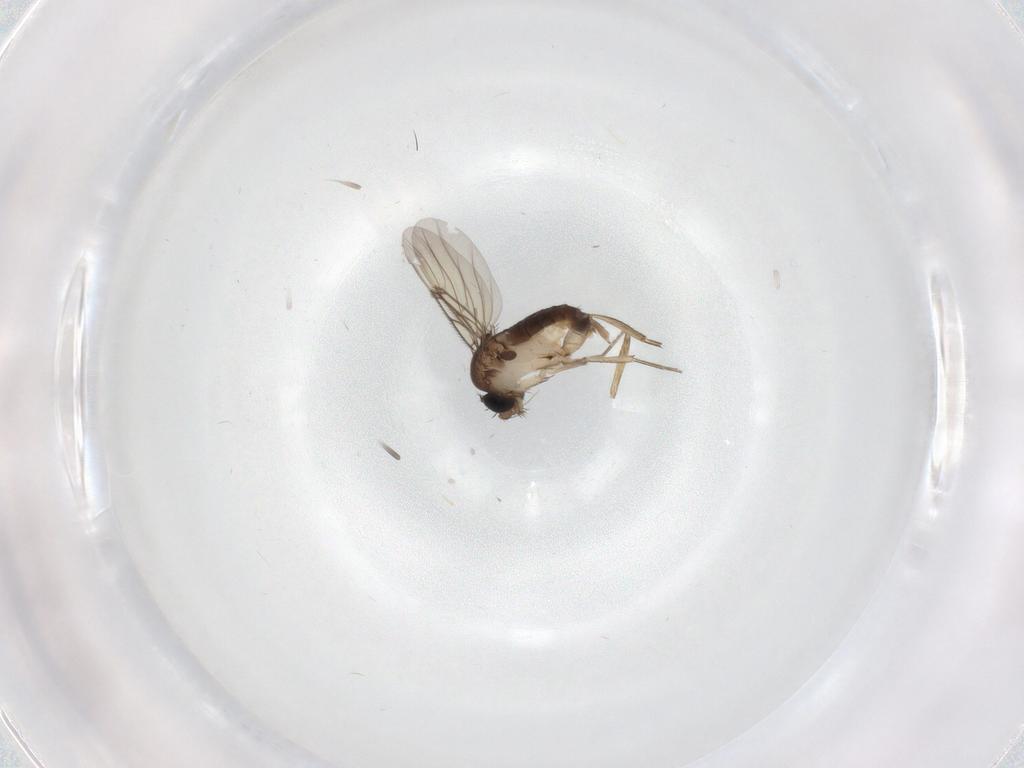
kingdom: Animalia
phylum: Arthropoda
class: Insecta
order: Diptera
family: Phoridae
